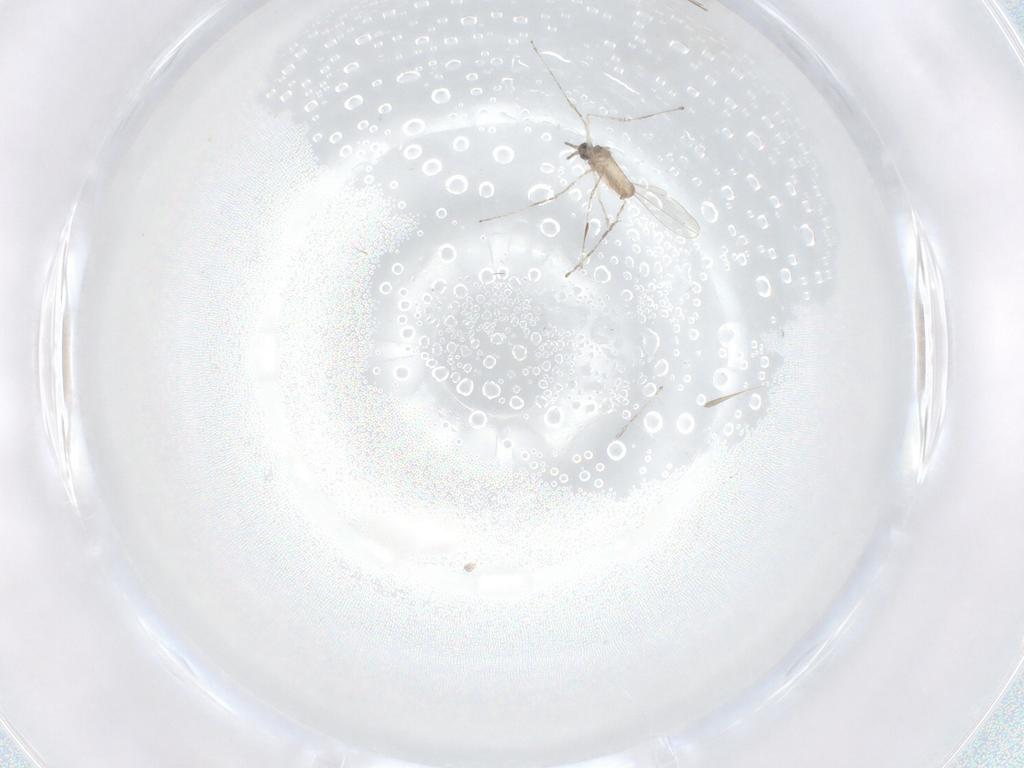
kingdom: Animalia
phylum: Arthropoda
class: Insecta
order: Diptera
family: Cecidomyiidae
